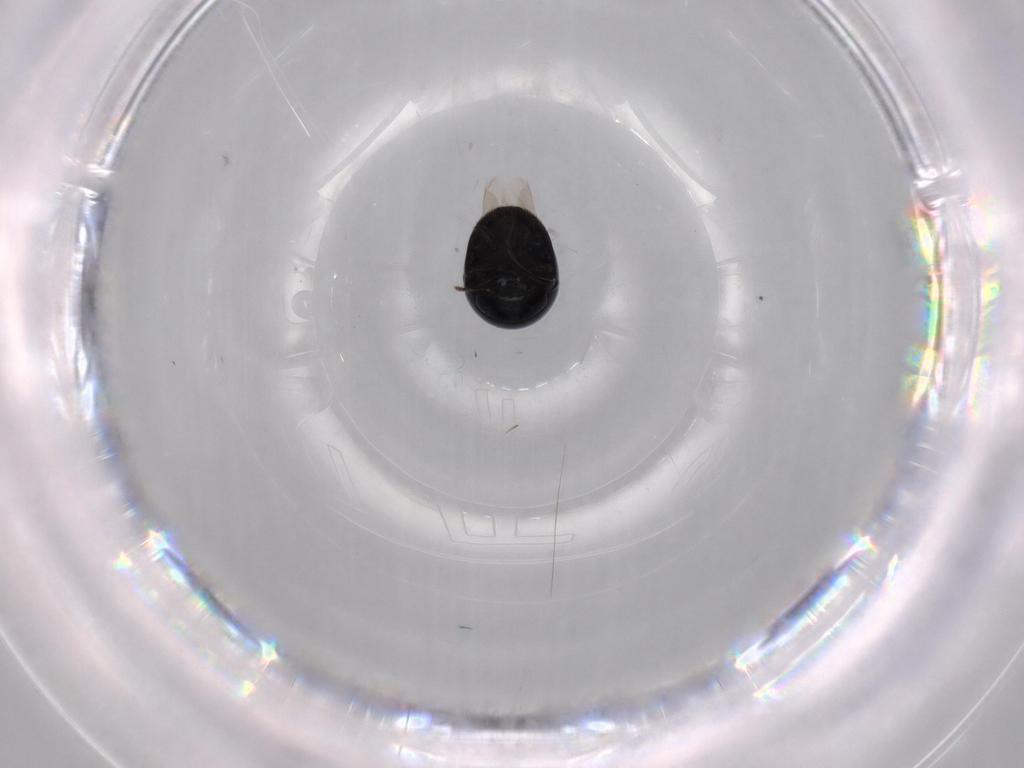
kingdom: Animalia
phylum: Arthropoda
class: Insecta
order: Coleoptera
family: Cybocephalidae
